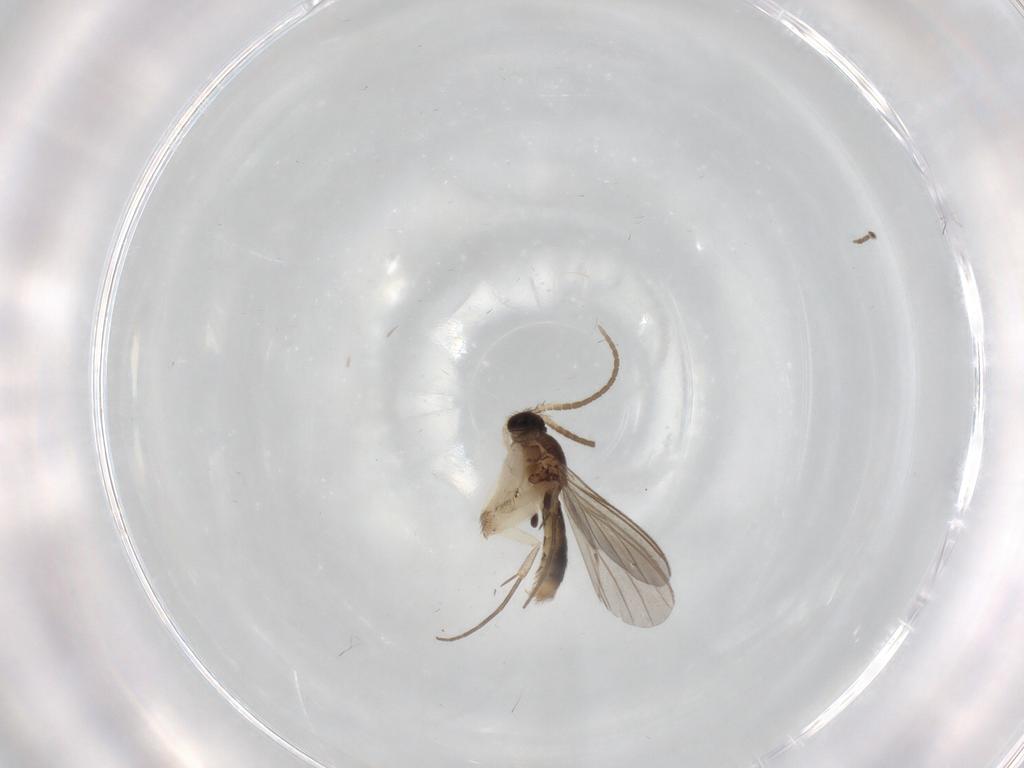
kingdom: Animalia
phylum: Arthropoda
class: Insecta
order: Diptera
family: Mycetophilidae
